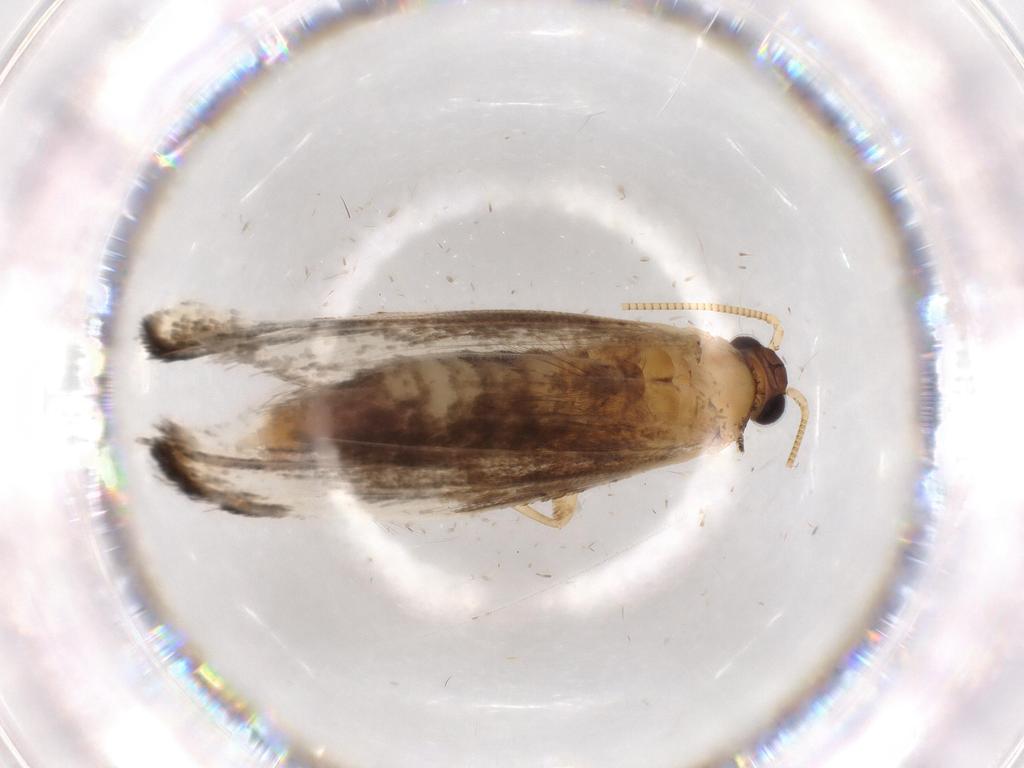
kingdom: Animalia
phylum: Arthropoda
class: Insecta
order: Lepidoptera
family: Tineidae
